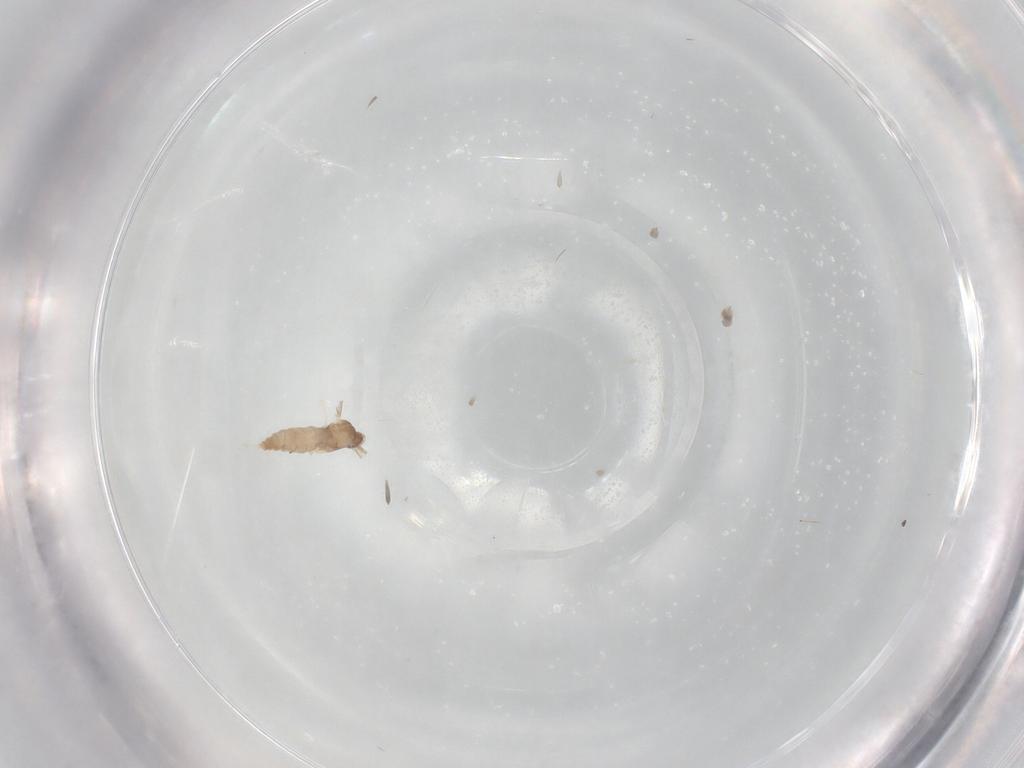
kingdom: Animalia
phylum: Arthropoda
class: Insecta
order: Diptera
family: Cecidomyiidae
